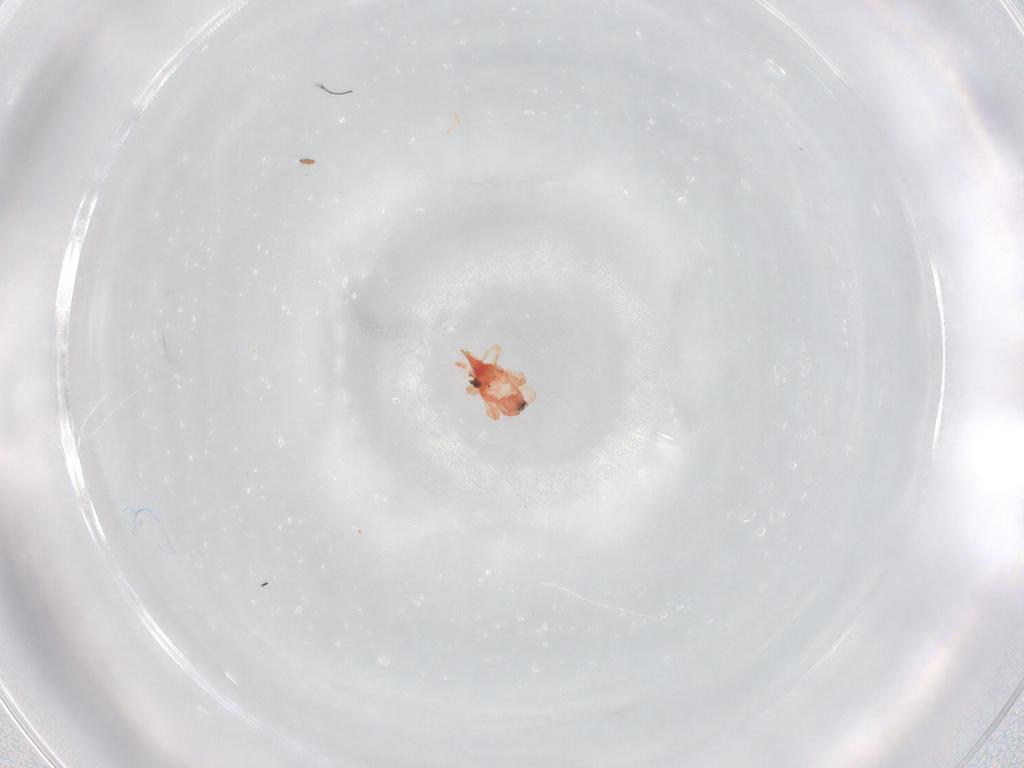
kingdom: Animalia
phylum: Arthropoda
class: Arachnida
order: Trombidiformes
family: Bdellidae
